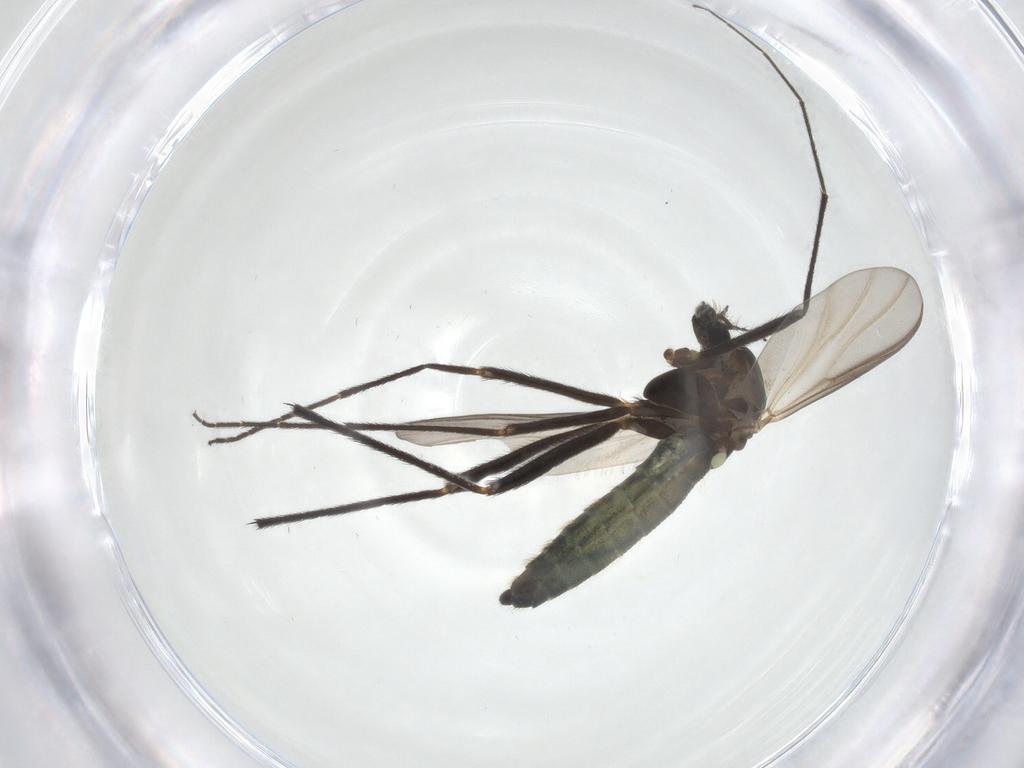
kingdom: Animalia
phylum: Arthropoda
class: Insecta
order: Diptera
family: Chironomidae
